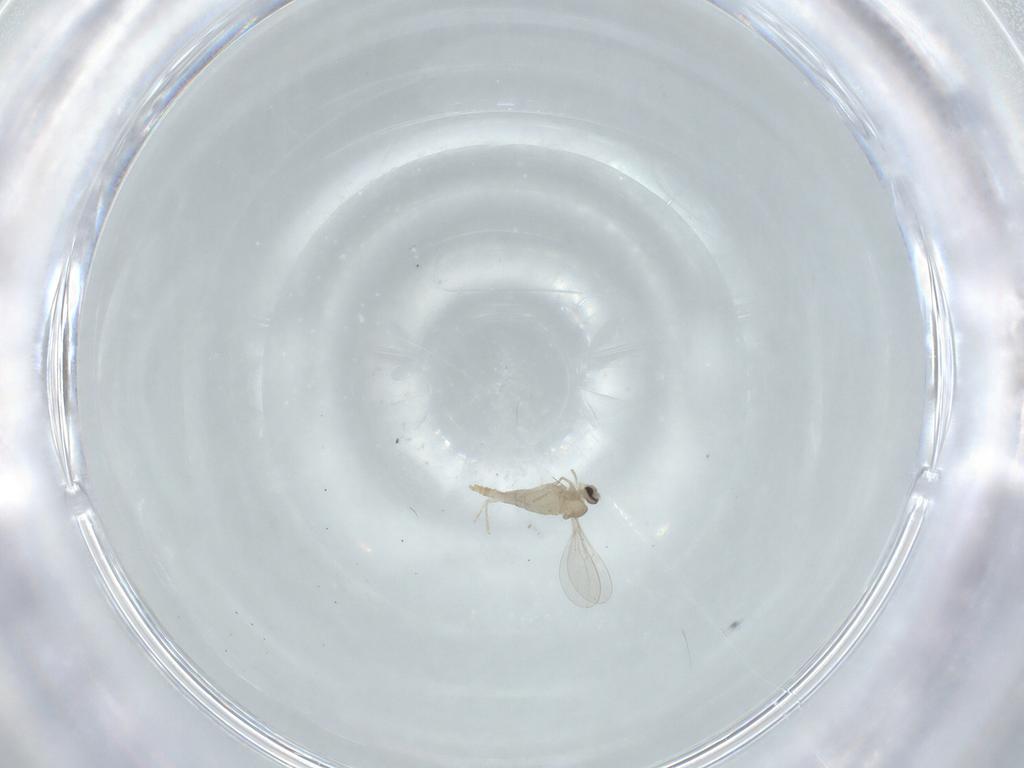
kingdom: Animalia
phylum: Arthropoda
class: Insecta
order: Diptera
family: Cecidomyiidae
